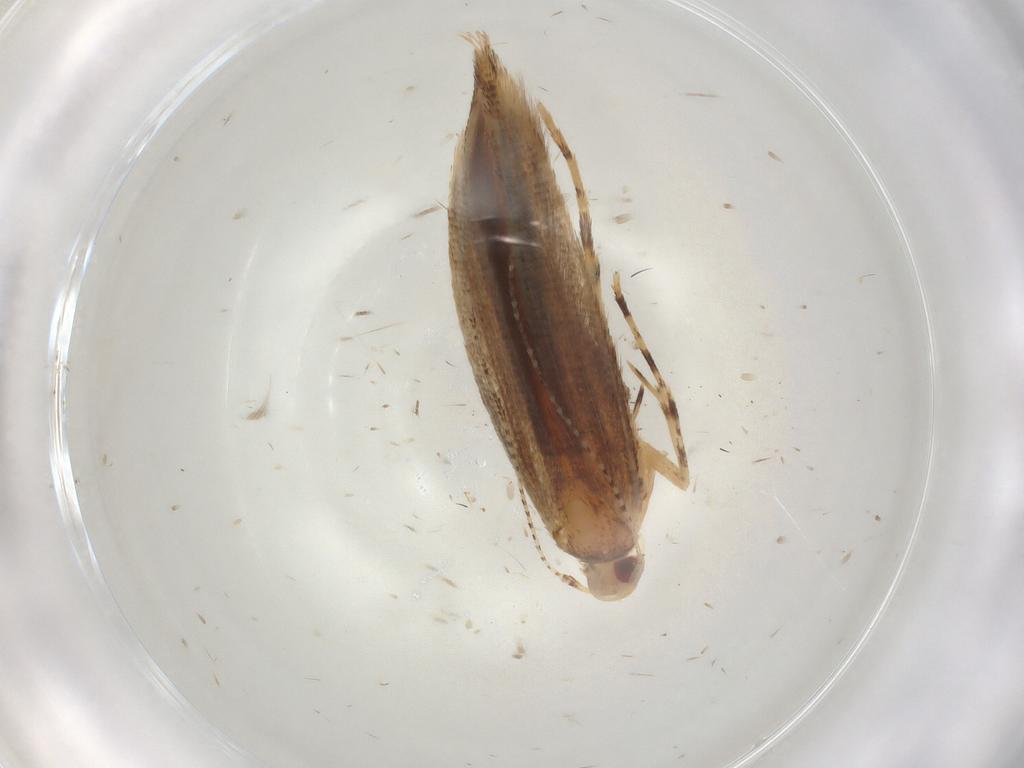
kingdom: Animalia
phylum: Arthropoda
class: Insecta
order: Lepidoptera
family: Cosmopterigidae
